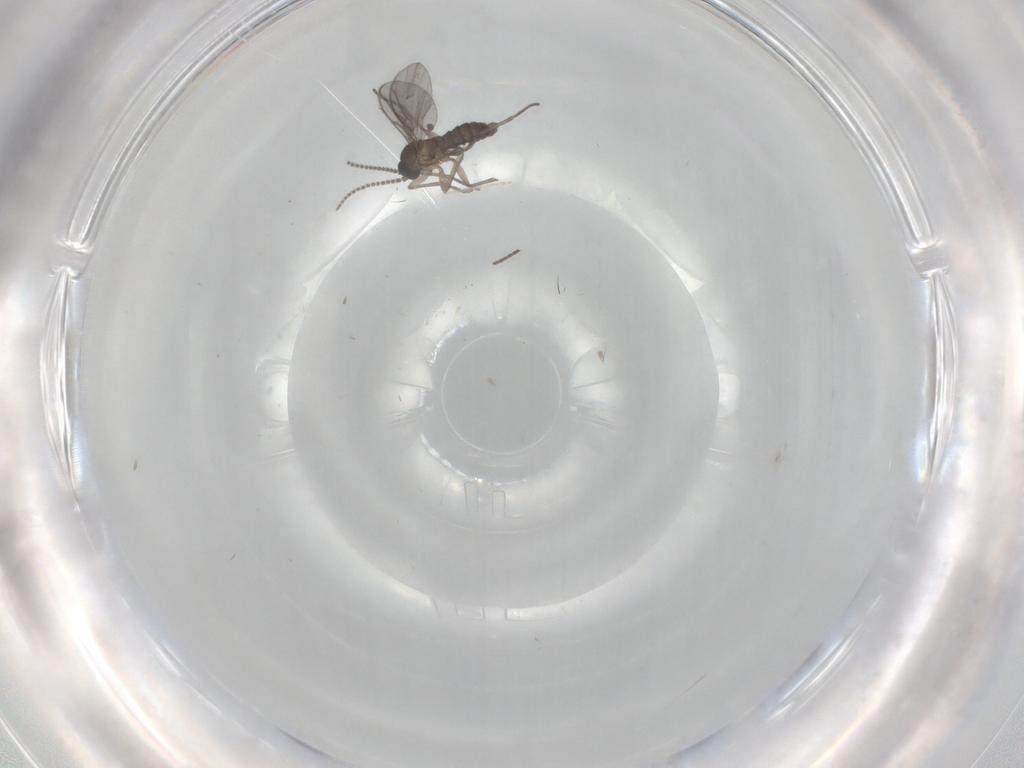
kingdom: Animalia
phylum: Arthropoda
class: Insecta
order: Diptera
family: Cecidomyiidae
